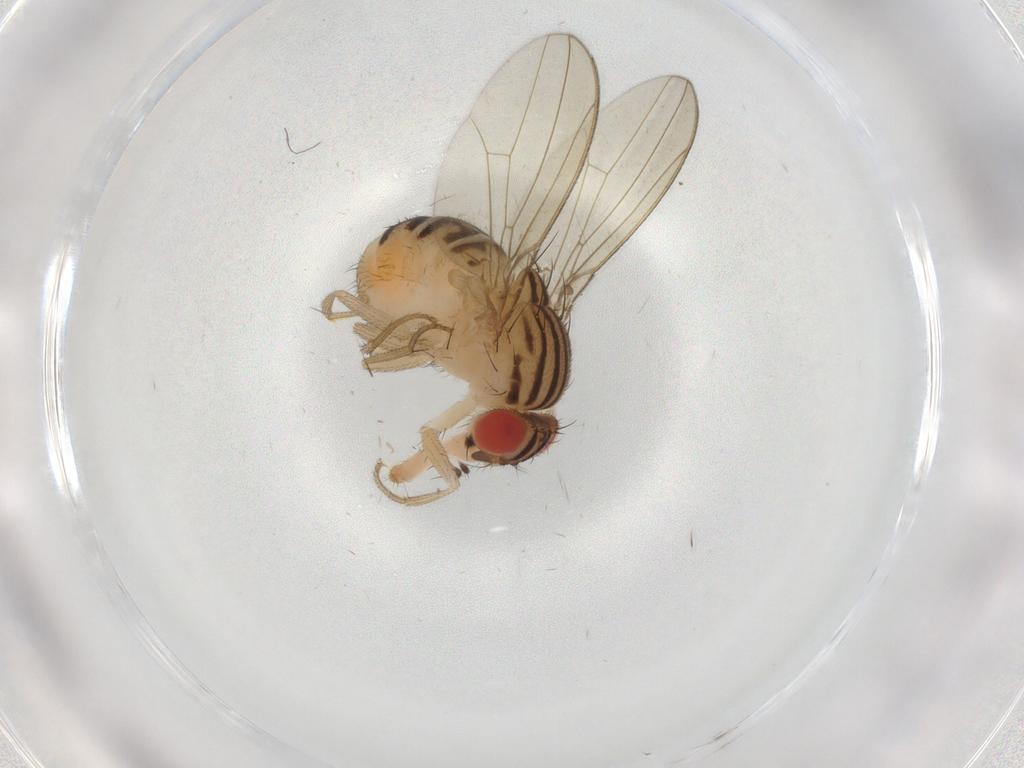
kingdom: Animalia
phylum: Arthropoda
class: Insecta
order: Diptera
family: Drosophilidae
